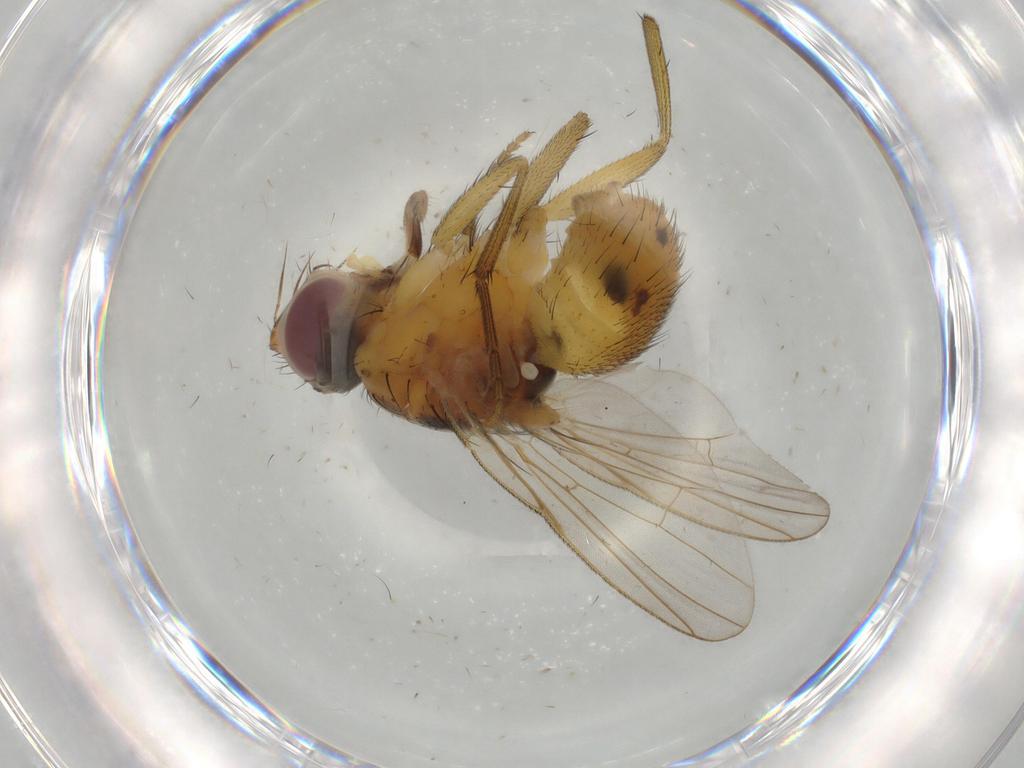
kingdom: Animalia
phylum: Arthropoda
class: Insecta
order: Diptera
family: Muscidae
